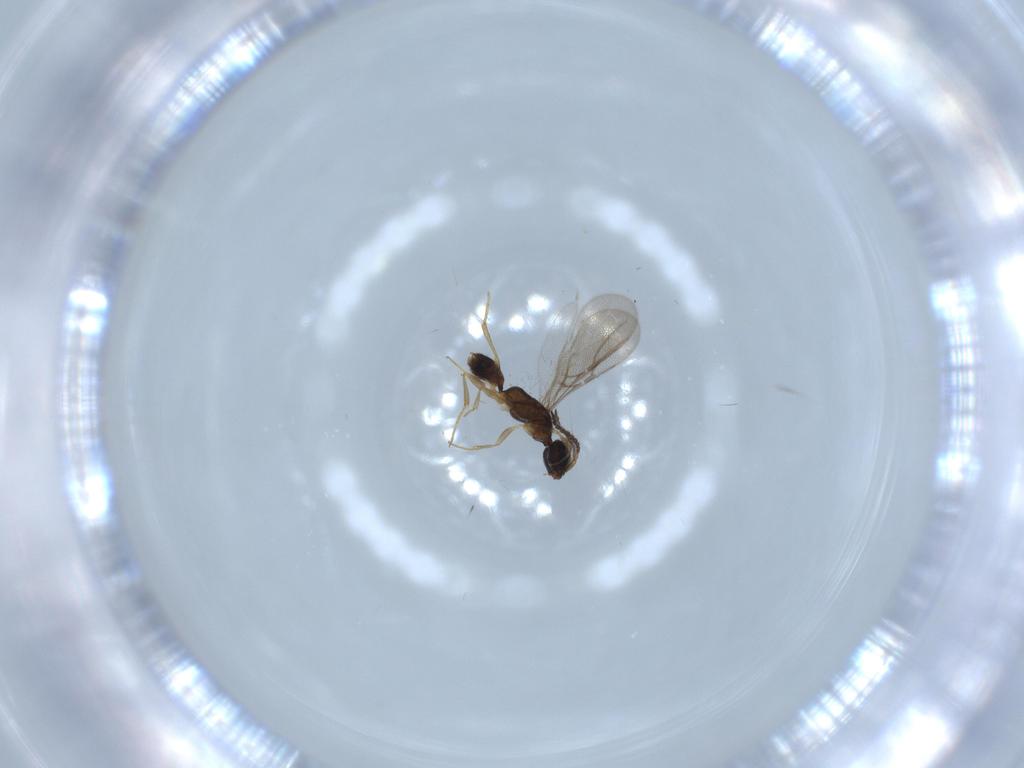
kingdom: Animalia
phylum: Arthropoda
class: Insecta
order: Hymenoptera
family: Bethylidae
